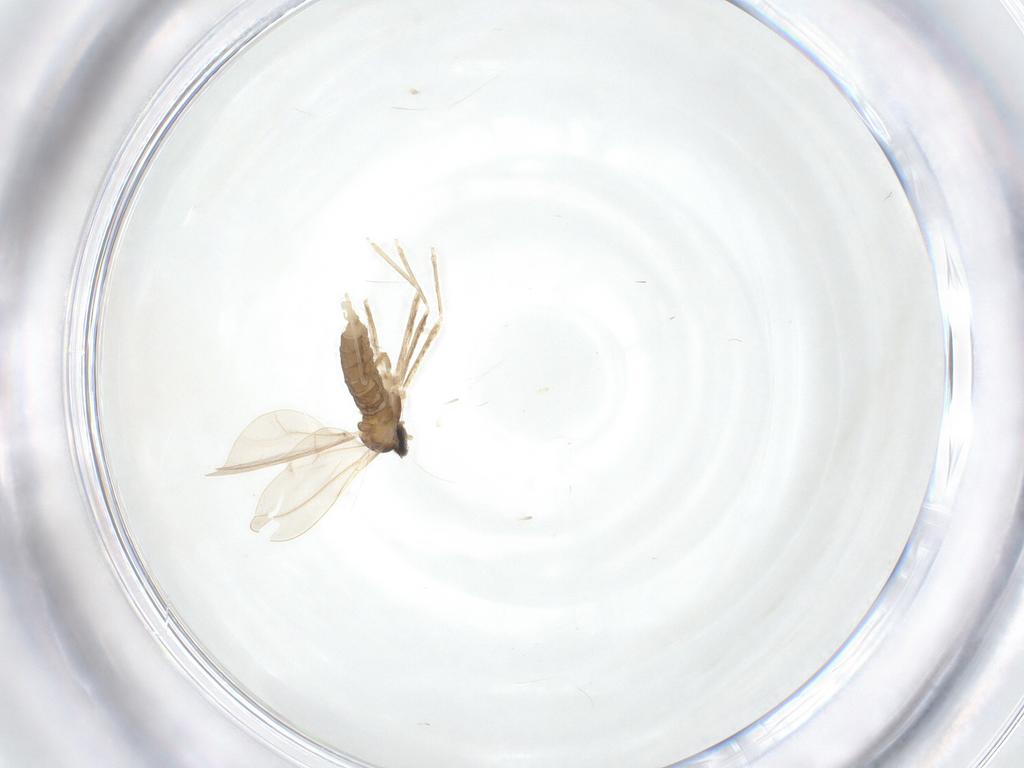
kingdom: Animalia
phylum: Arthropoda
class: Insecta
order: Diptera
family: Cecidomyiidae
